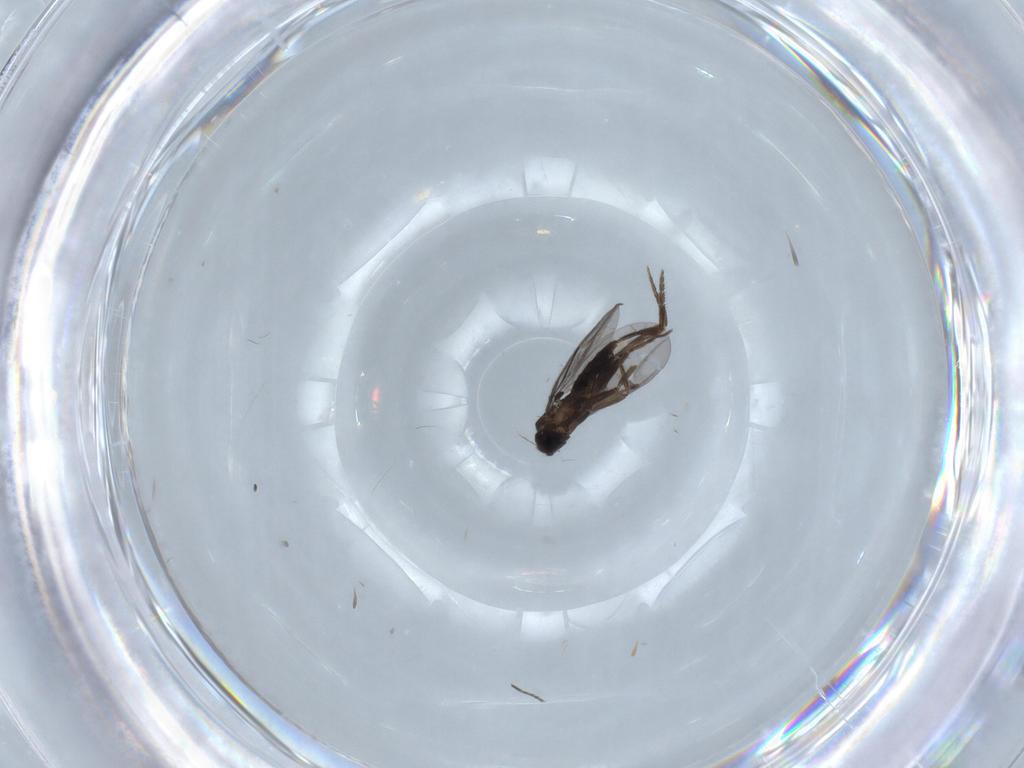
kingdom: Animalia
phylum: Arthropoda
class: Insecta
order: Diptera
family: Phoridae
